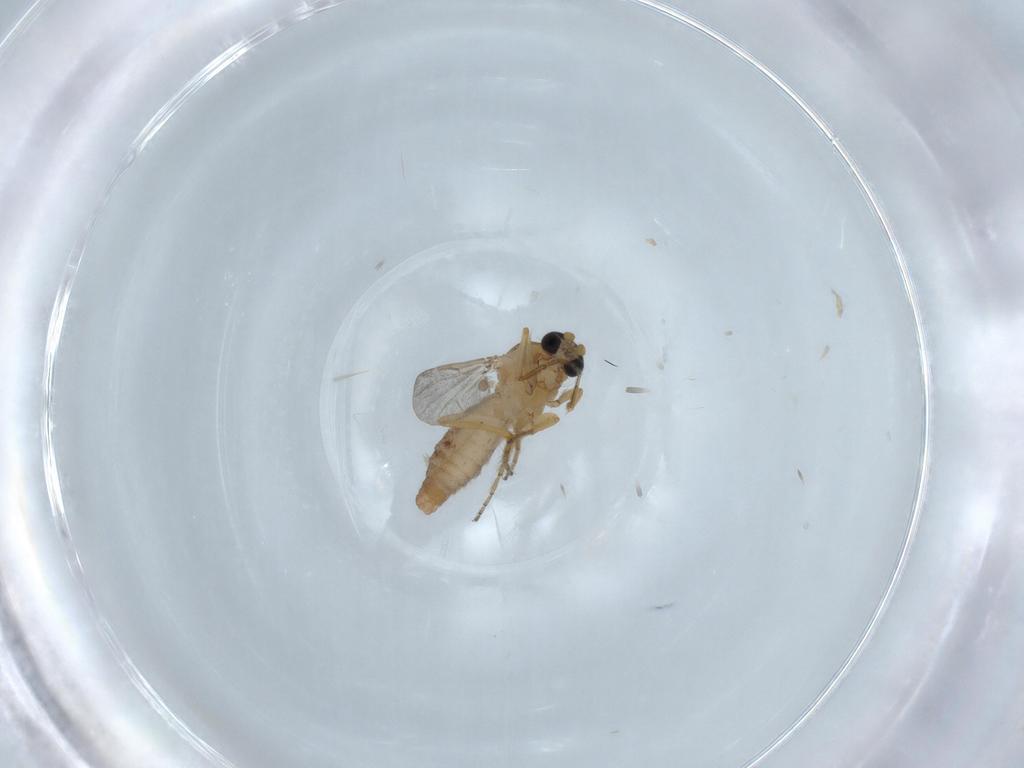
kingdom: Animalia
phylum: Arthropoda
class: Insecta
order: Diptera
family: Ceratopogonidae
